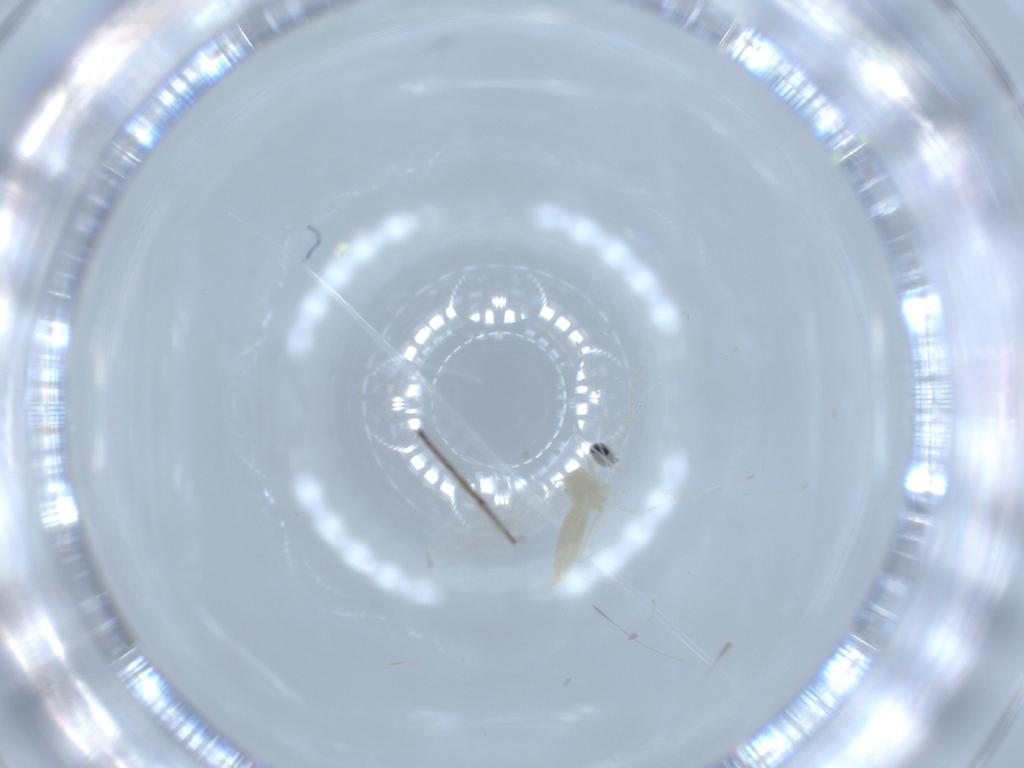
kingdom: Animalia
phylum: Arthropoda
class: Insecta
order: Diptera
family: Cecidomyiidae
